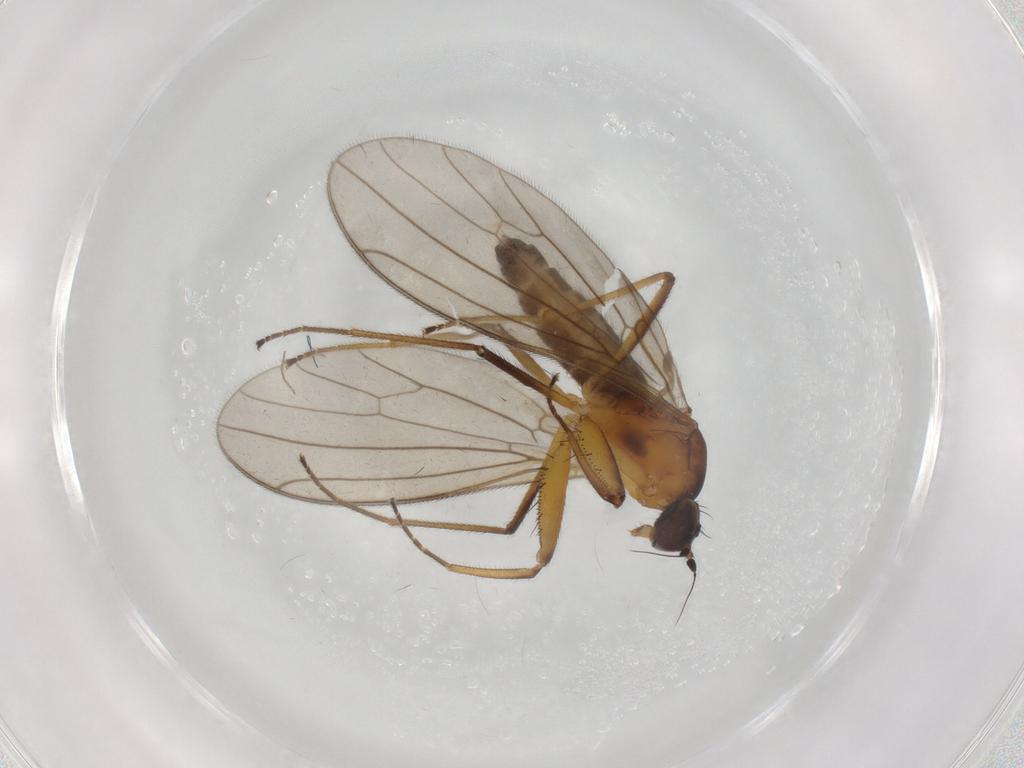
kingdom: Animalia
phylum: Arthropoda
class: Insecta
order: Diptera
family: Empididae
